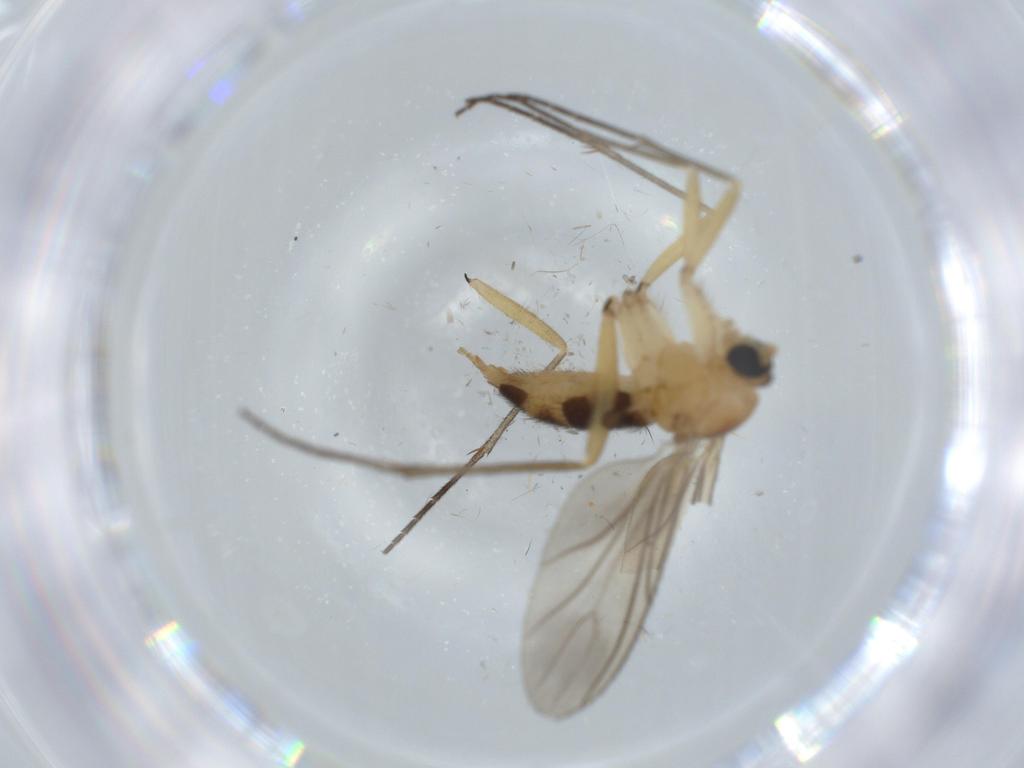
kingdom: Animalia
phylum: Arthropoda
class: Insecta
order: Diptera
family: Sciaridae
